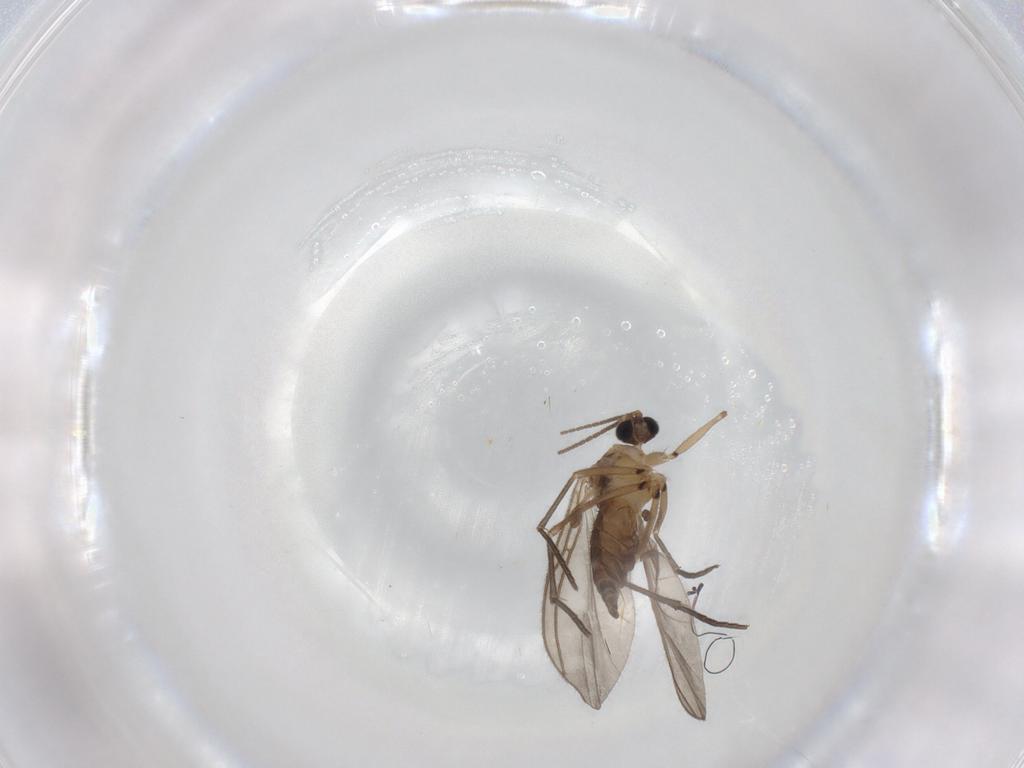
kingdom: Animalia
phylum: Arthropoda
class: Insecta
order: Diptera
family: Sciaridae
